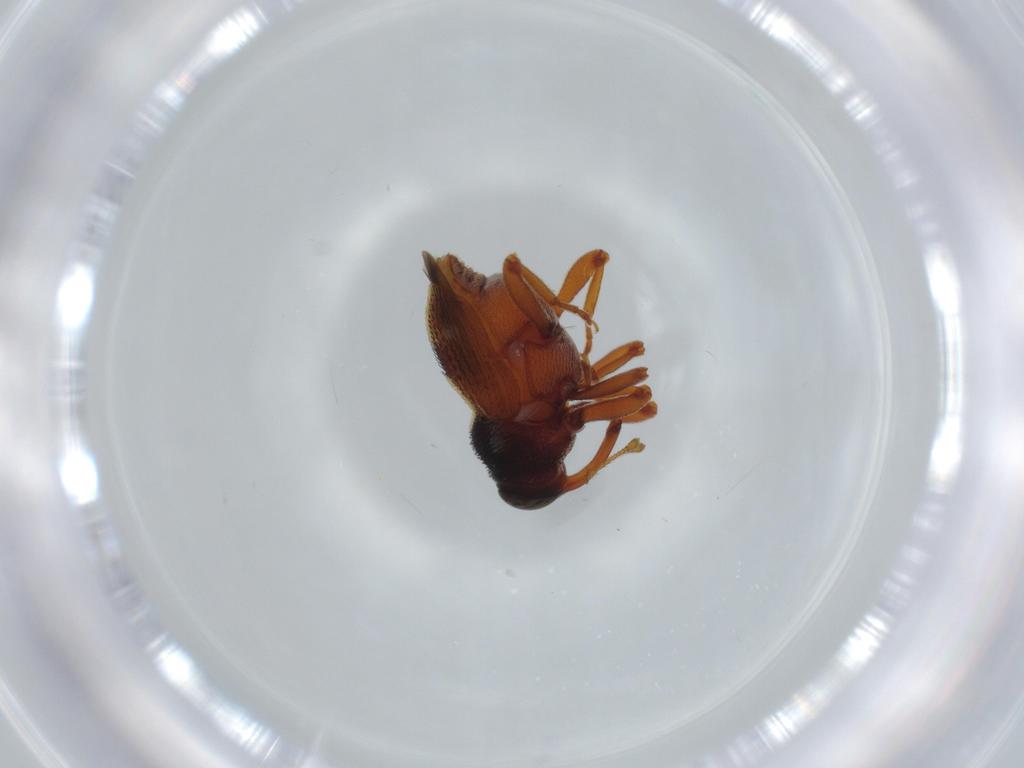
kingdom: Animalia
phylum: Arthropoda
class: Insecta
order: Coleoptera
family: Curculionidae
